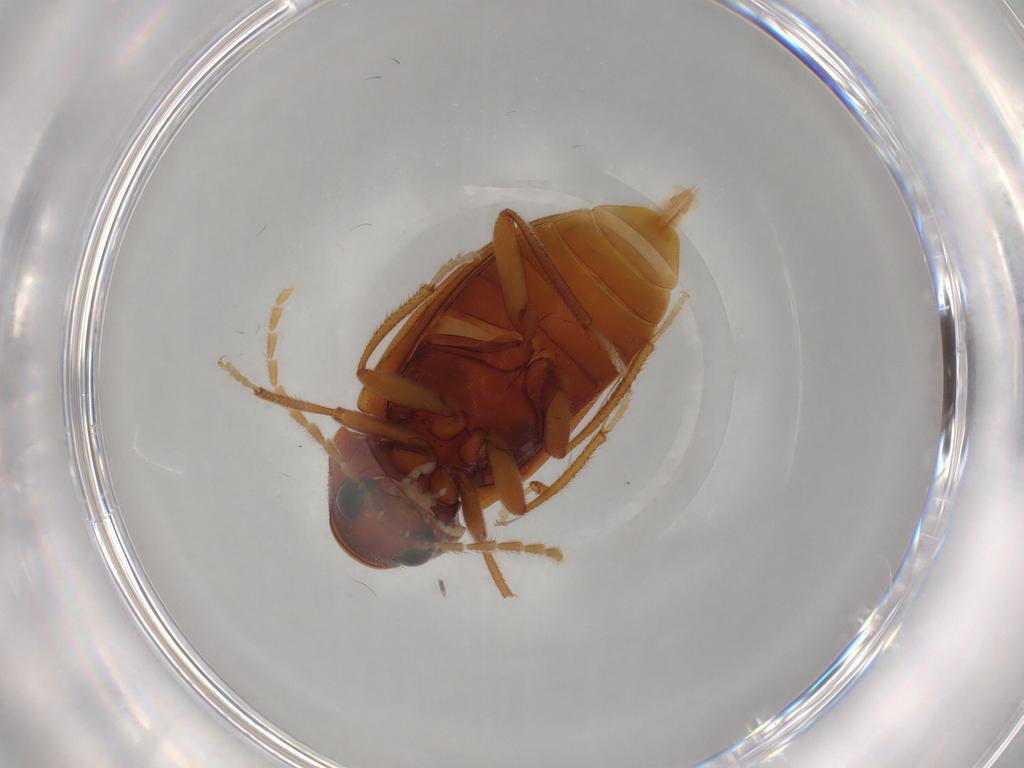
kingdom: Animalia
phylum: Arthropoda
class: Insecta
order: Coleoptera
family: Ptilodactylidae
